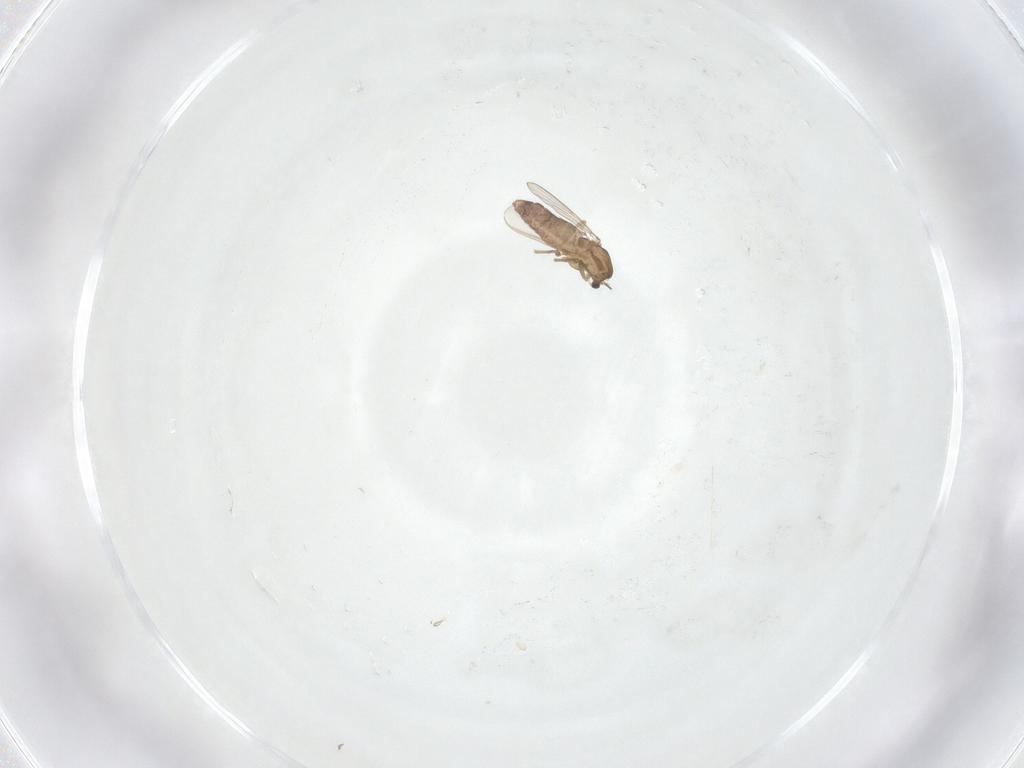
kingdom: Animalia
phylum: Arthropoda
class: Insecta
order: Diptera
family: Chironomidae
